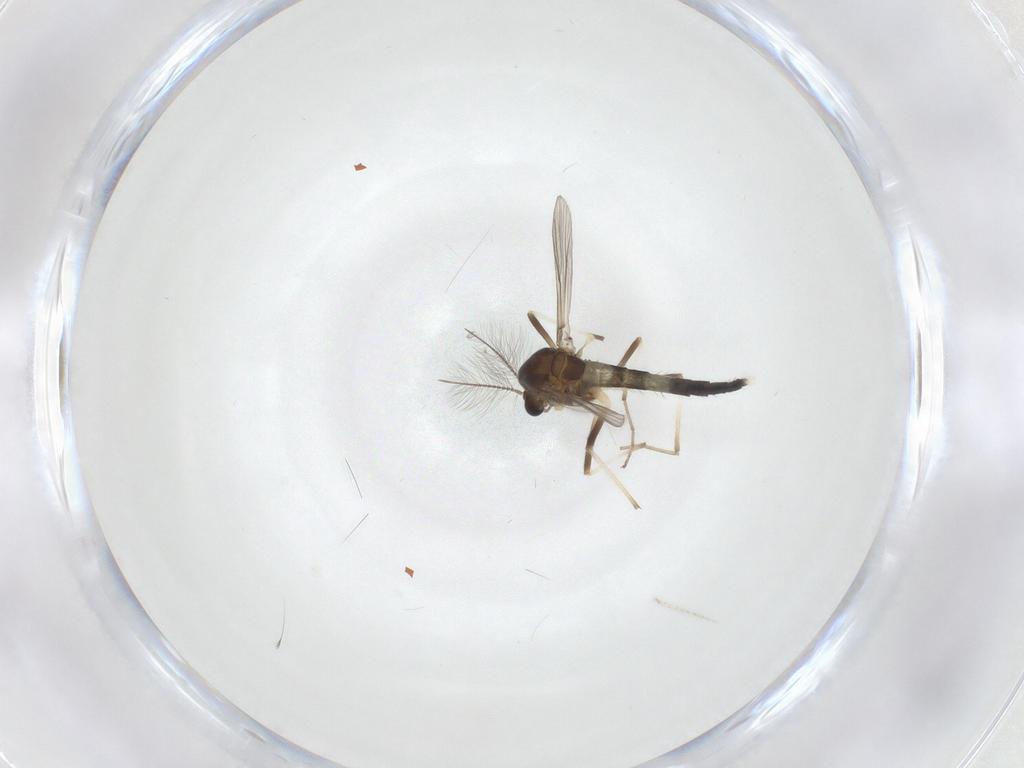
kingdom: Animalia
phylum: Arthropoda
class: Insecta
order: Diptera
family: Chironomidae
